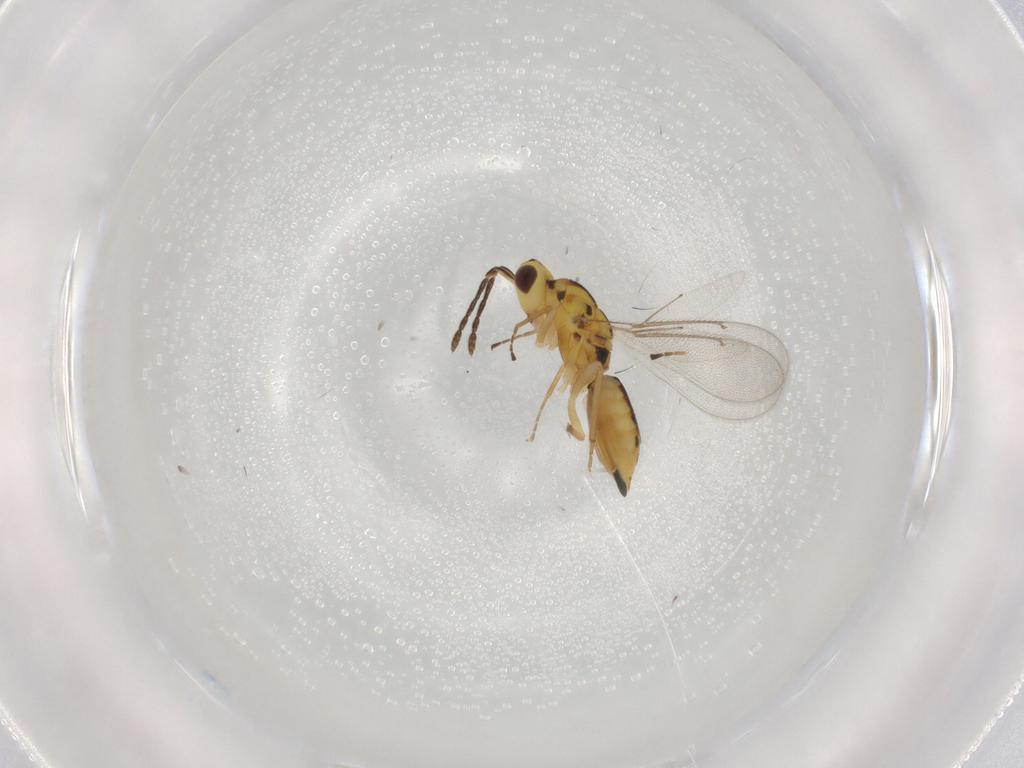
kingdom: Animalia
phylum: Arthropoda
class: Insecta
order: Hymenoptera
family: Eulophidae
